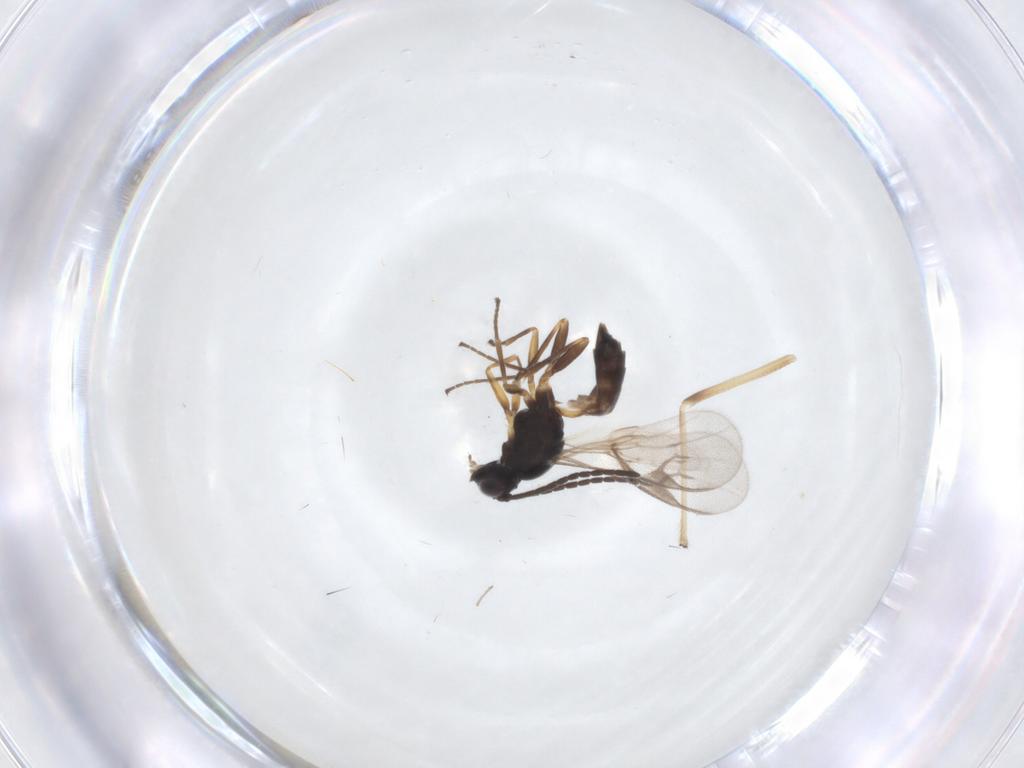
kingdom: Animalia
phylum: Arthropoda
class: Insecta
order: Hymenoptera
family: Braconidae
